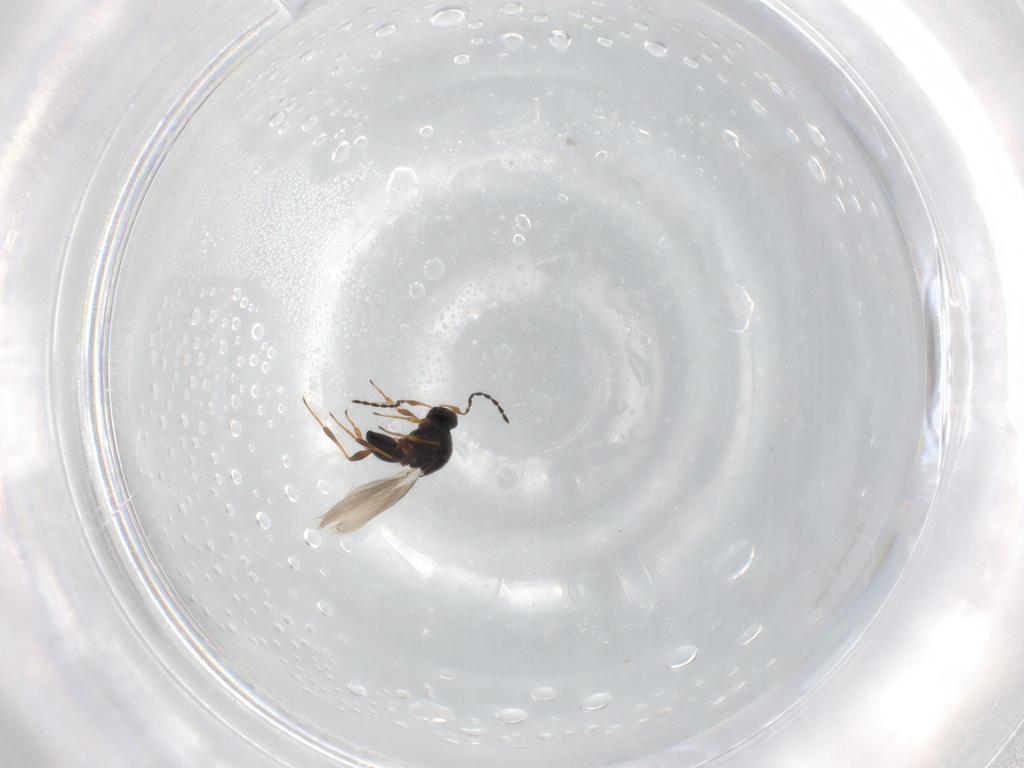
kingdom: Animalia
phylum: Arthropoda
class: Insecta
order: Hymenoptera
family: Platygastridae
